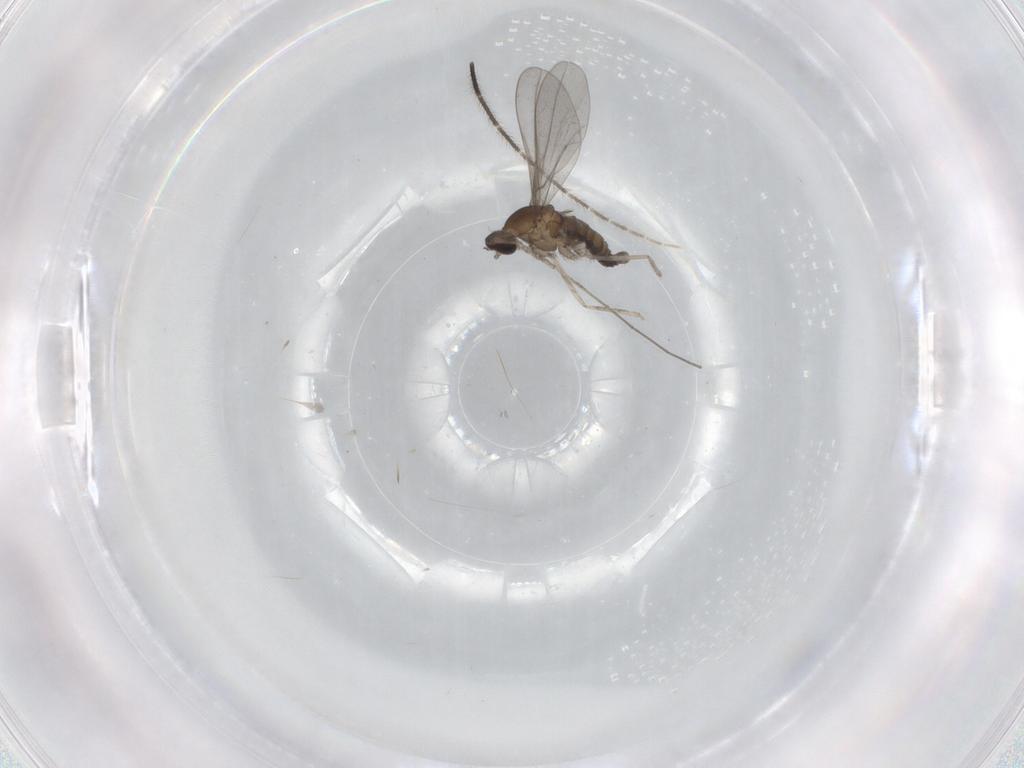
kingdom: Animalia
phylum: Arthropoda
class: Insecta
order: Diptera
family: Cecidomyiidae
